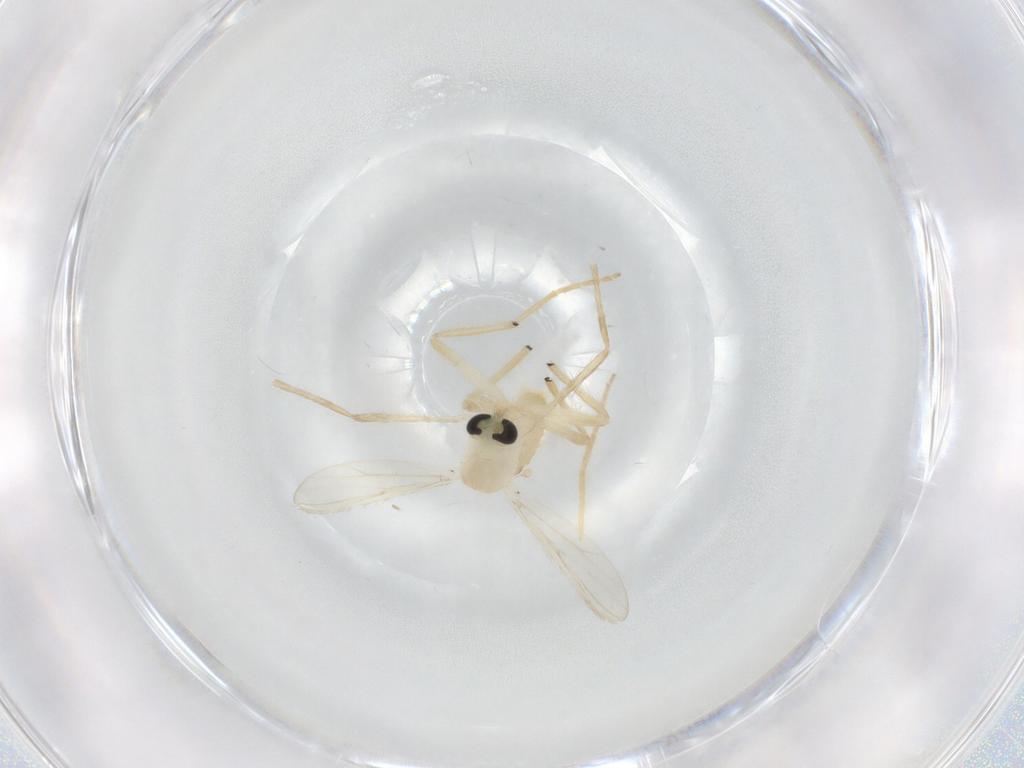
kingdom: Animalia
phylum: Arthropoda
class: Insecta
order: Diptera
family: Chironomidae
